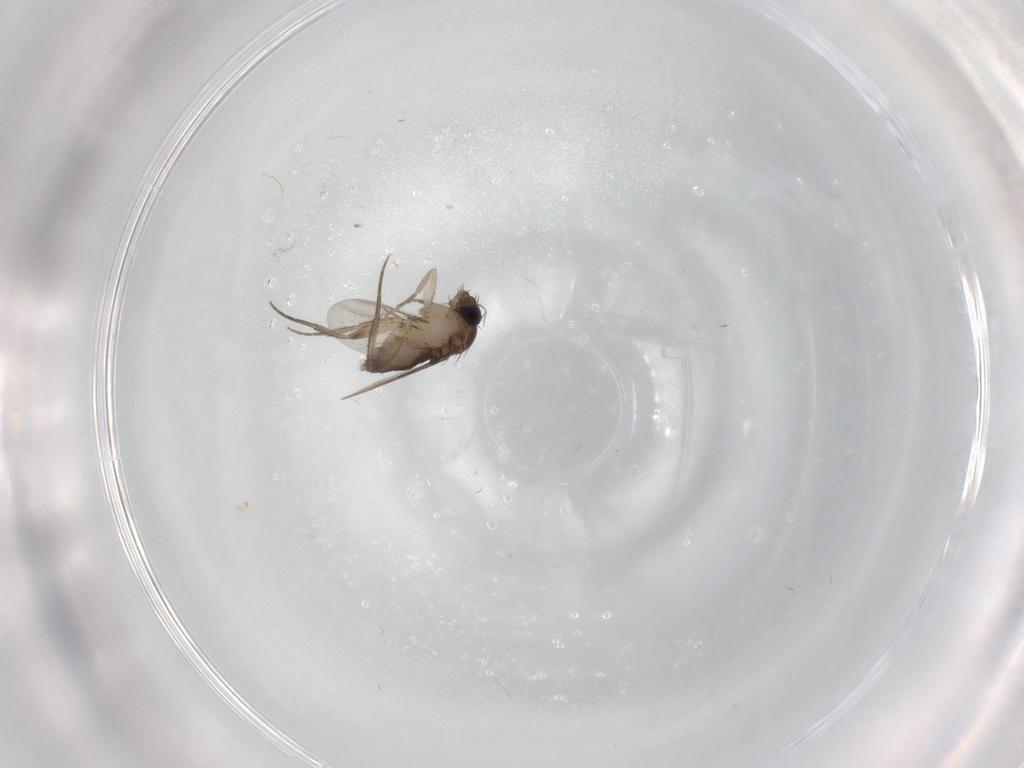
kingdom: Animalia
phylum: Arthropoda
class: Insecta
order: Diptera
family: Phoridae
